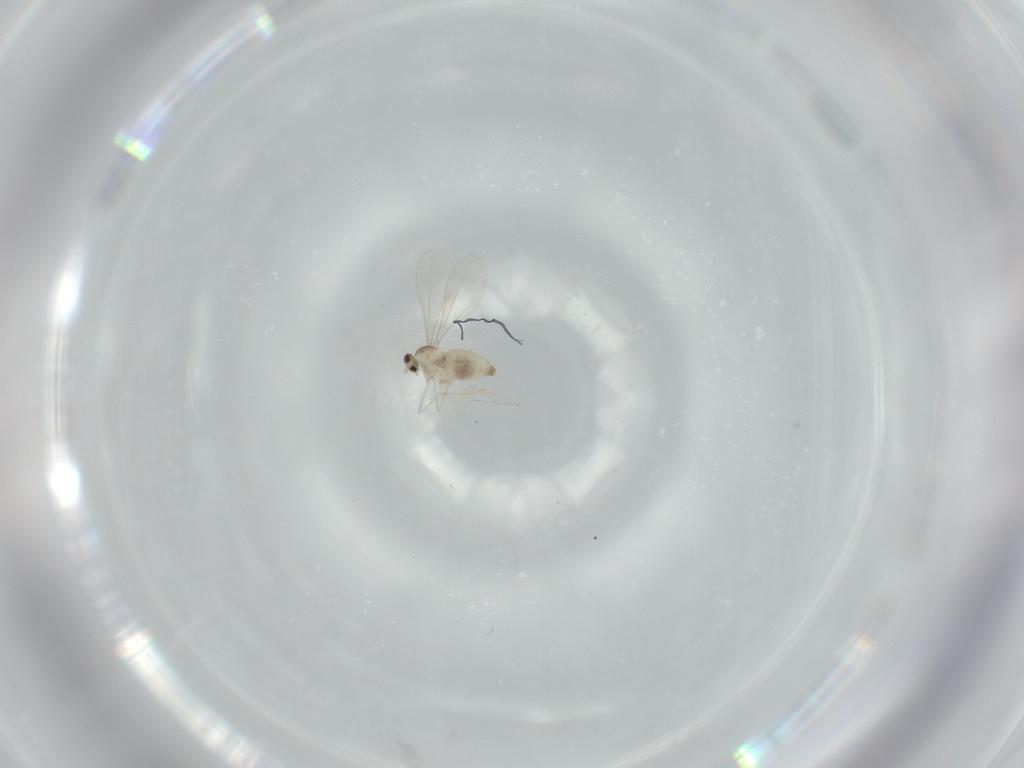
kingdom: Animalia
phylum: Arthropoda
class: Insecta
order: Diptera
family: Cecidomyiidae
